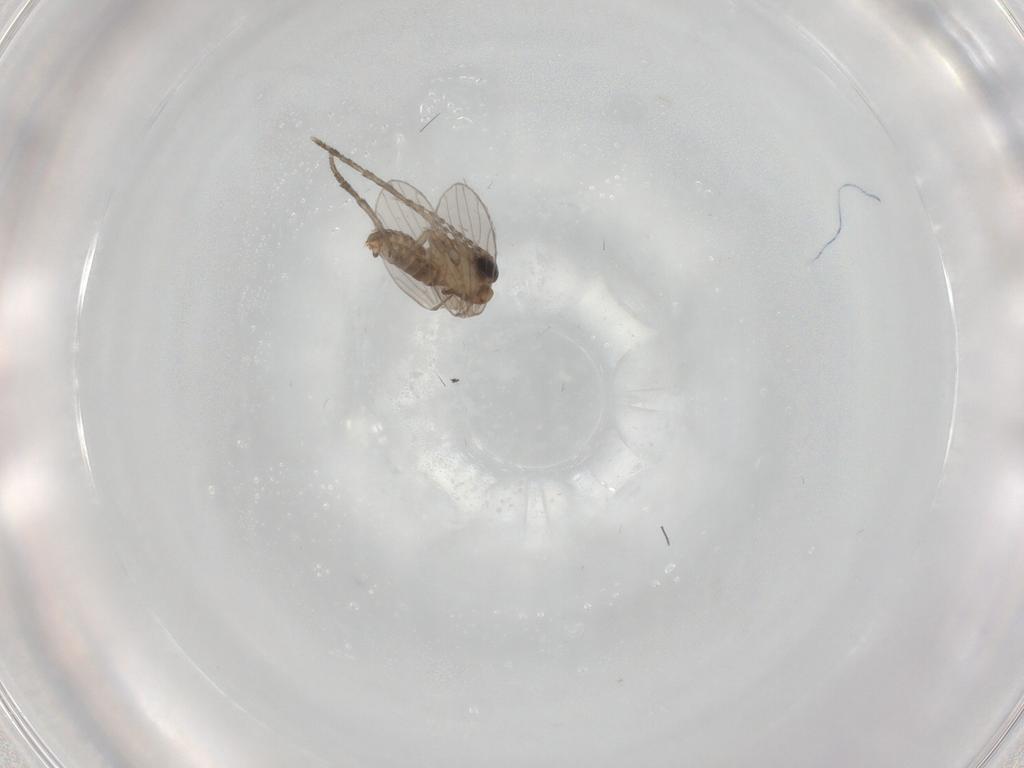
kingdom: Animalia
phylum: Arthropoda
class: Insecta
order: Diptera
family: Psychodidae
